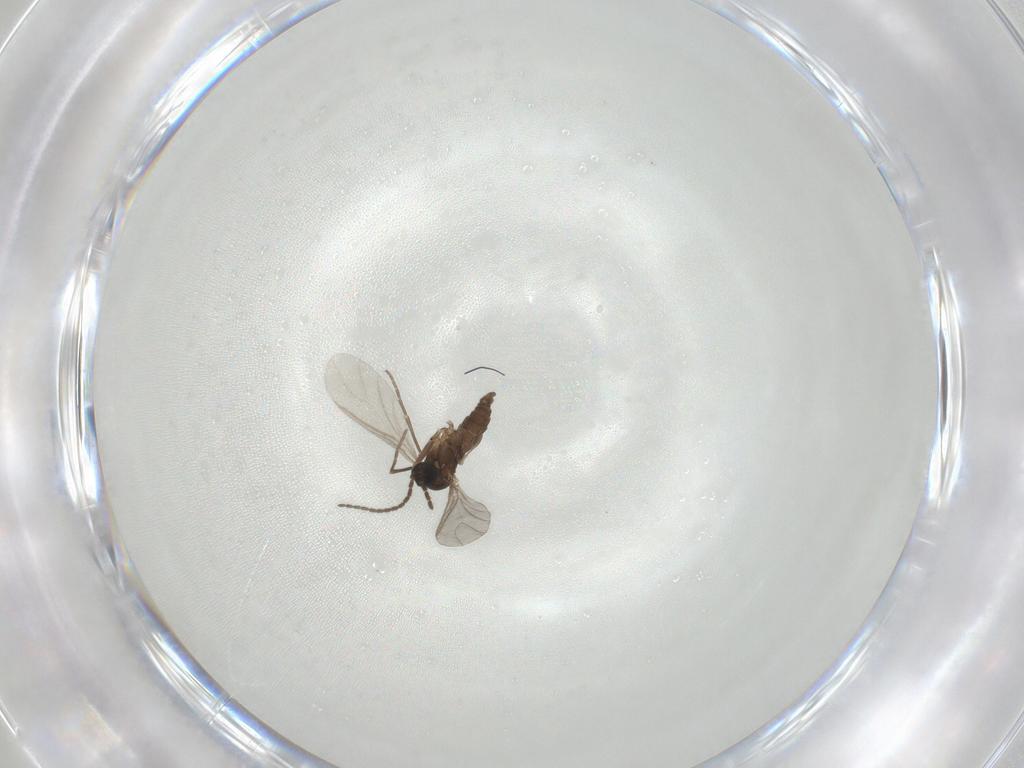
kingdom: Animalia
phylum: Arthropoda
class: Insecta
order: Diptera
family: Sciaridae
